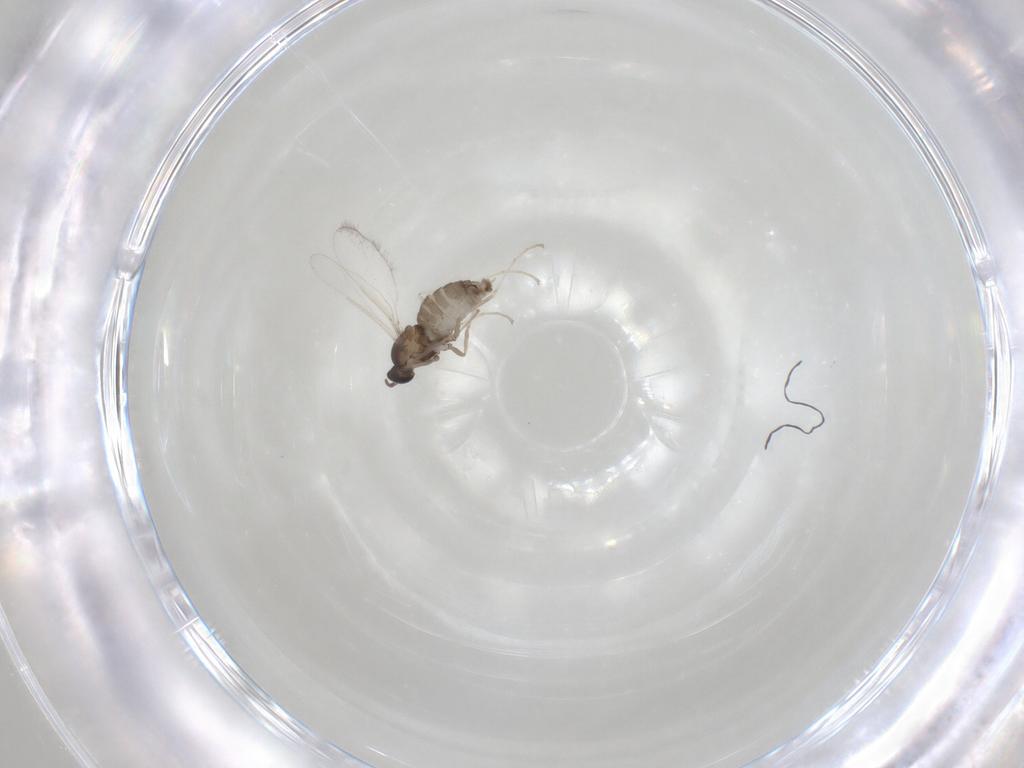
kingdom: Animalia
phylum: Arthropoda
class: Insecta
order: Diptera
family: Cecidomyiidae
